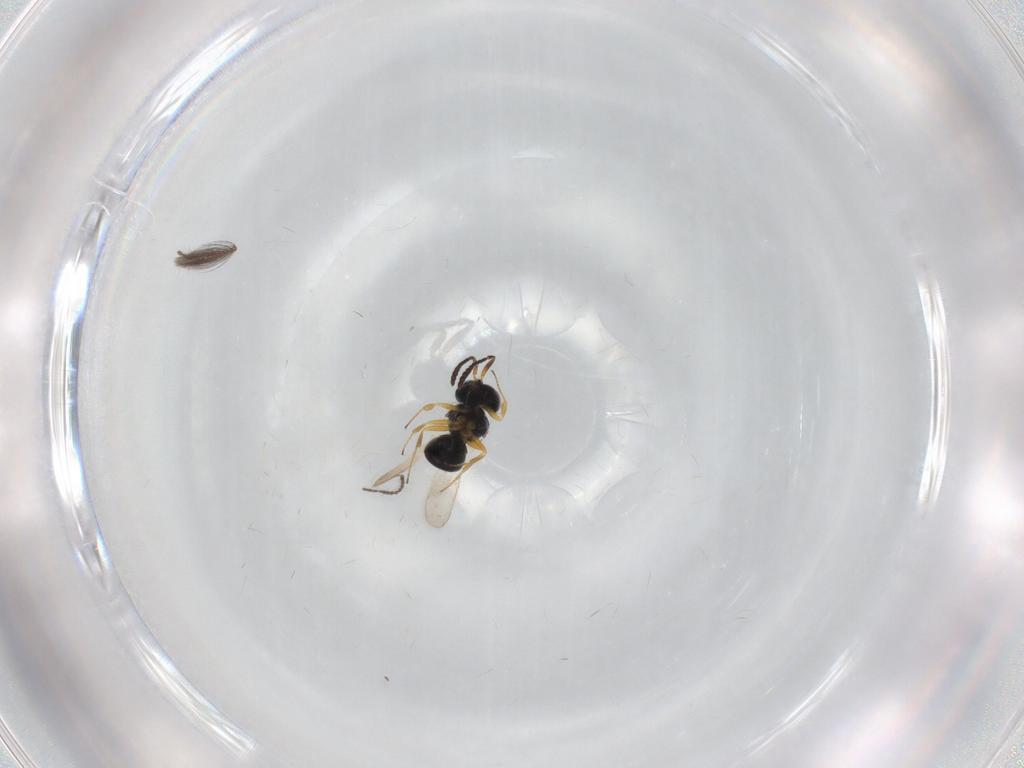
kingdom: Animalia
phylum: Arthropoda
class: Insecta
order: Hymenoptera
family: Scelionidae
